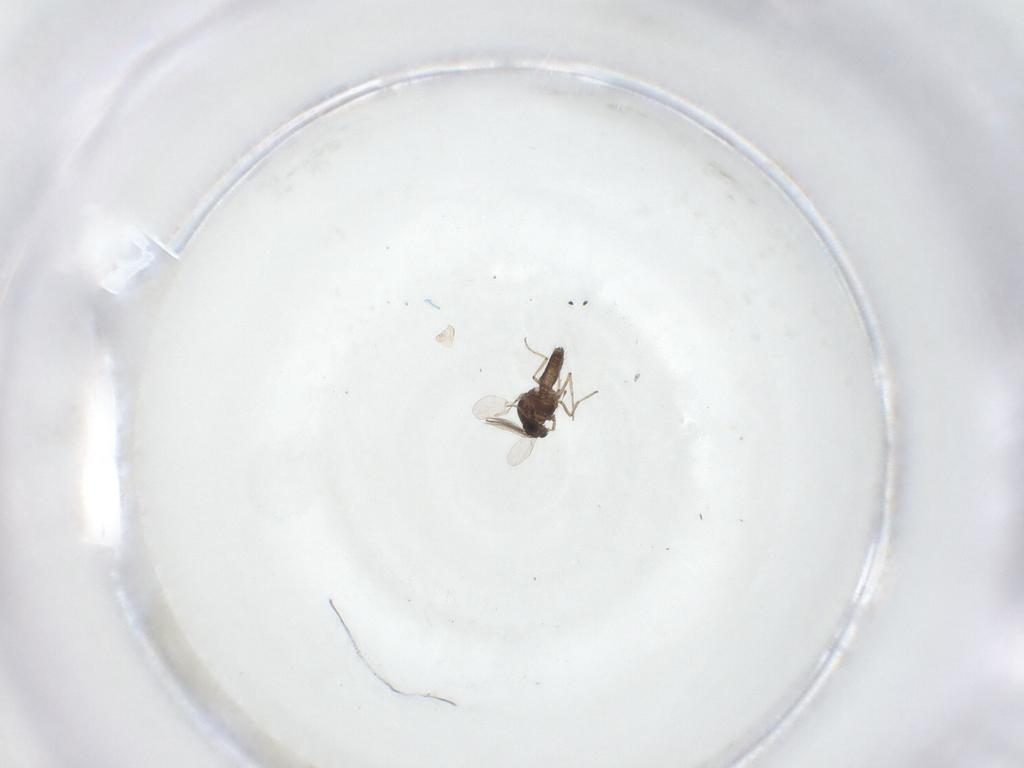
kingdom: Animalia
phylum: Arthropoda
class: Insecta
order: Diptera
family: Ceratopogonidae
